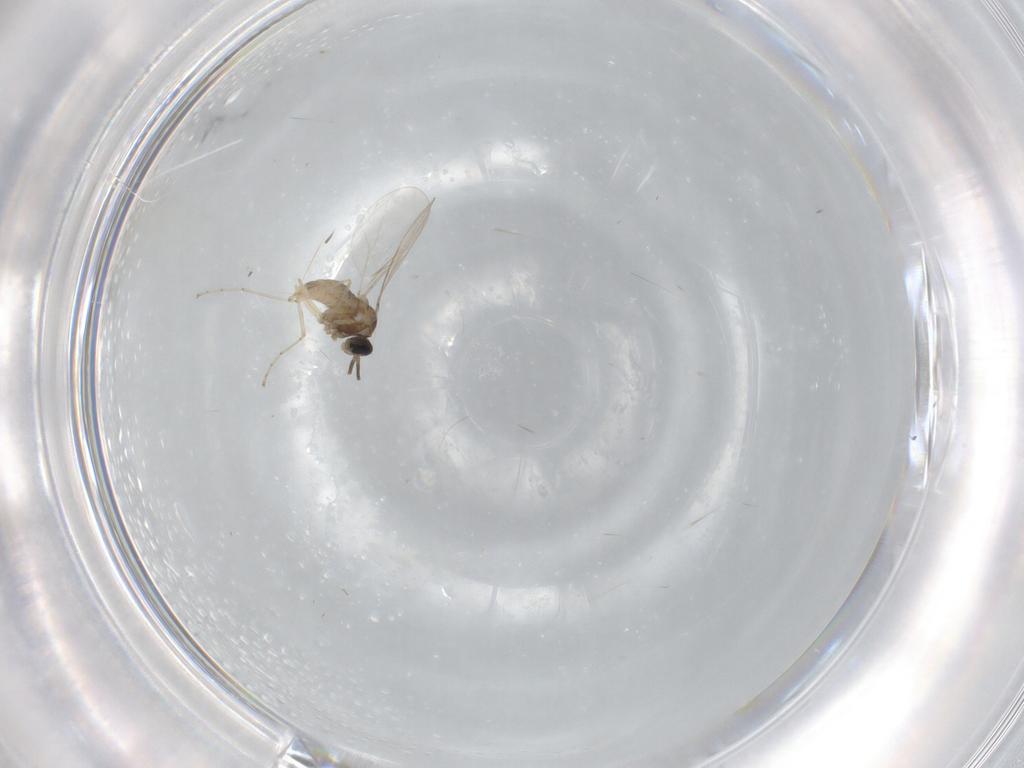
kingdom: Animalia
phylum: Arthropoda
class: Insecta
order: Diptera
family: Cecidomyiidae
